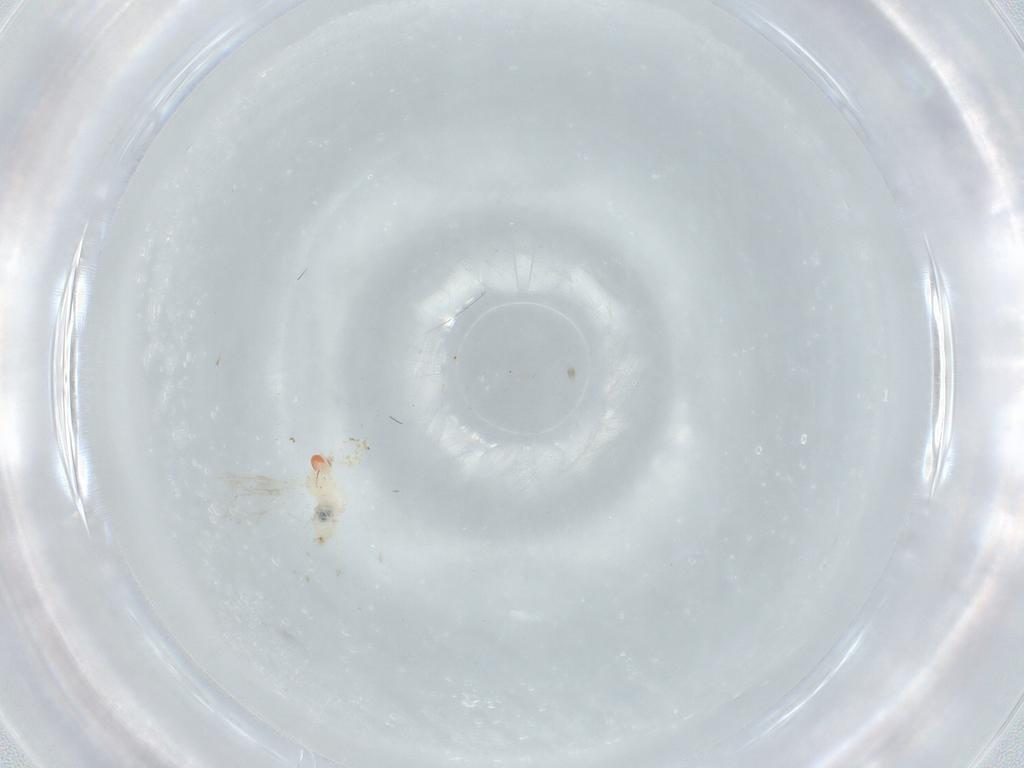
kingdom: Animalia
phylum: Arthropoda
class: Insecta
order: Diptera
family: Cecidomyiidae
